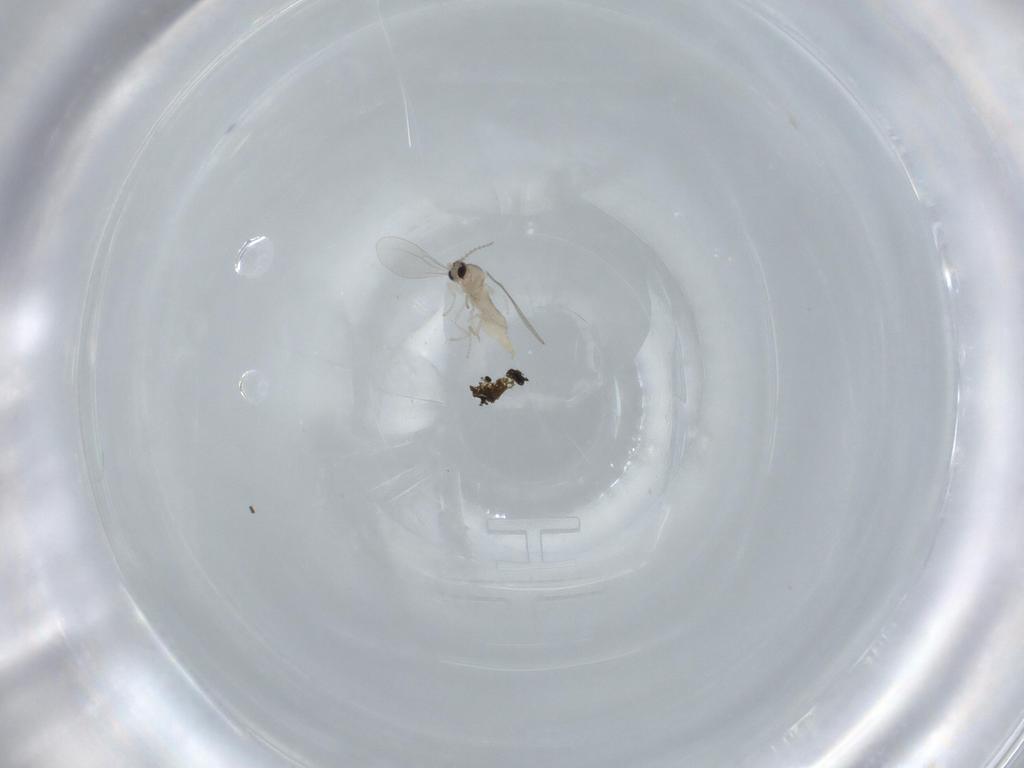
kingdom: Animalia
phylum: Arthropoda
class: Insecta
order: Diptera
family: Cecidomyiidae
